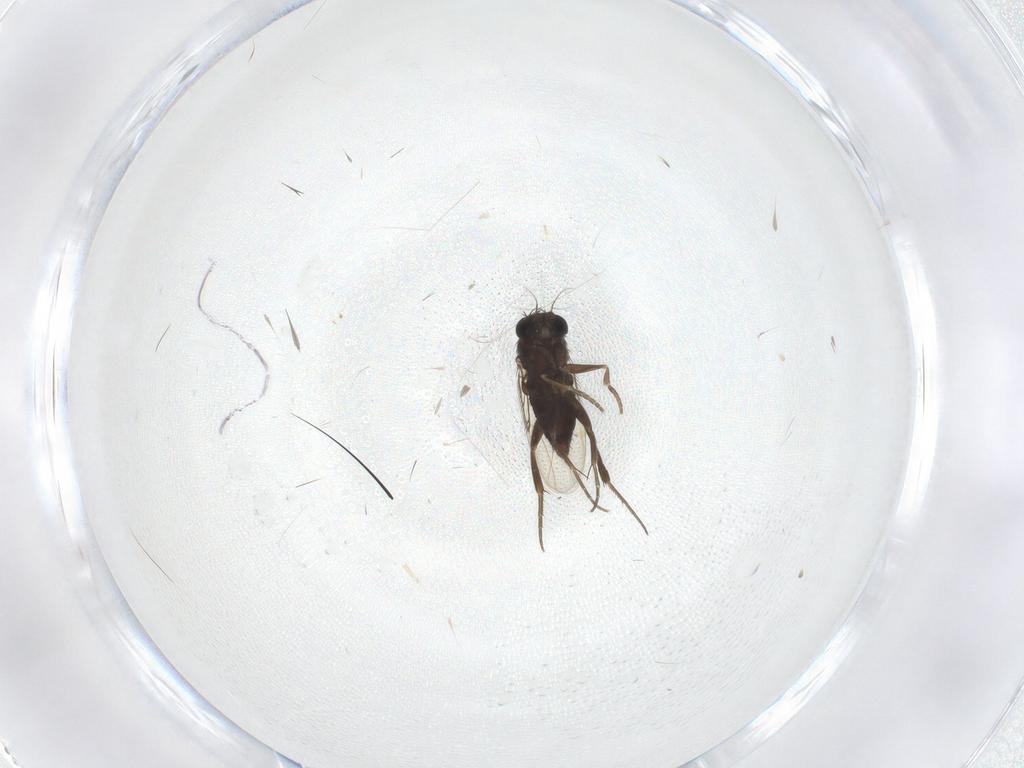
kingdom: Animalia
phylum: Arthropoda
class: Insecta
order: Diptera
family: Phoridae
